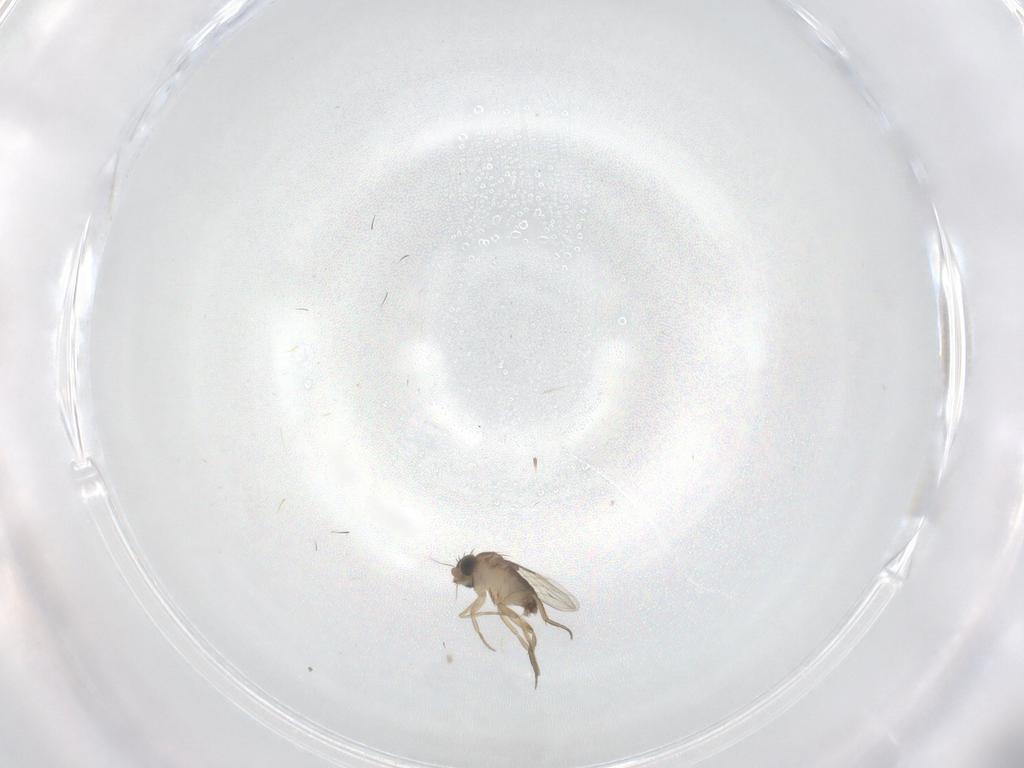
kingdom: Animalia
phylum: Arthropoda
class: Insecta
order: Diptera
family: Phoridae
